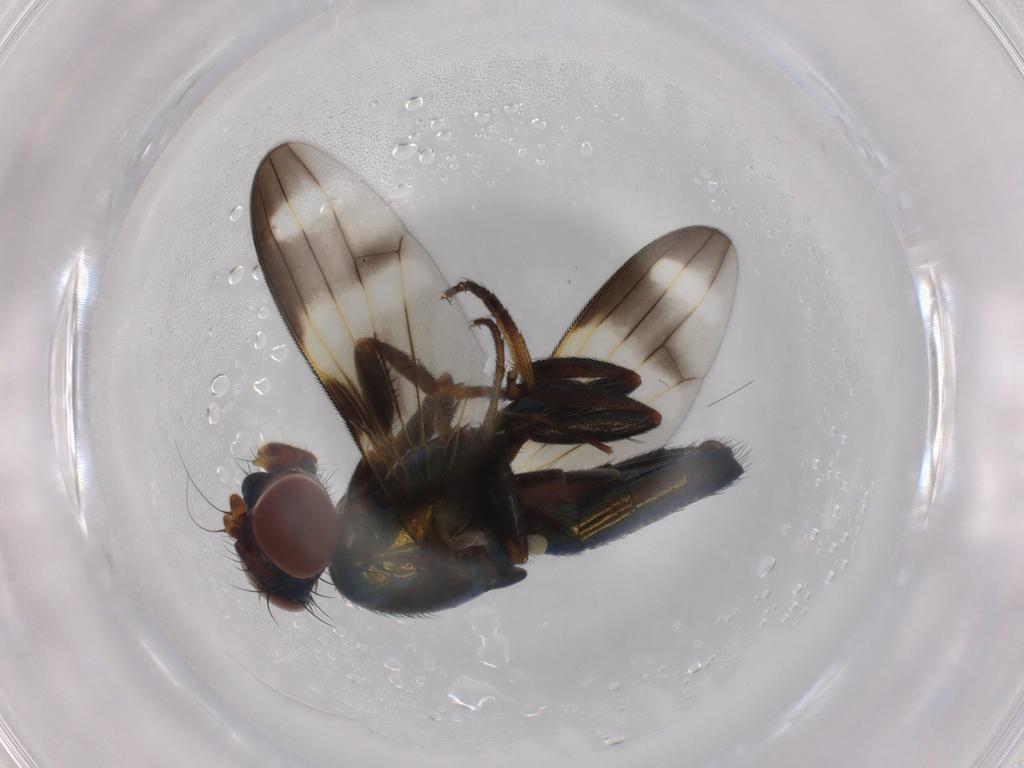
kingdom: Animalia
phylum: Arthropoda
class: Insecta
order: Diptera
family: Ulidiidae
